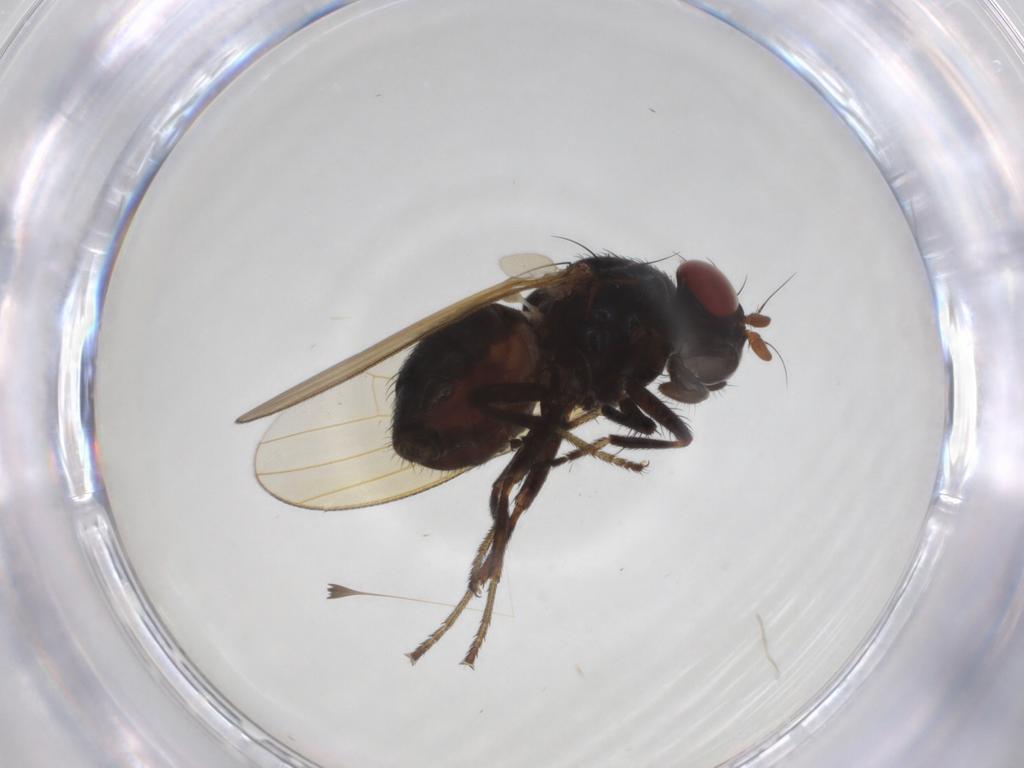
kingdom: Animalia
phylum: Arthropoda
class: Insecta
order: Diptera
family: Lauxaniidae
